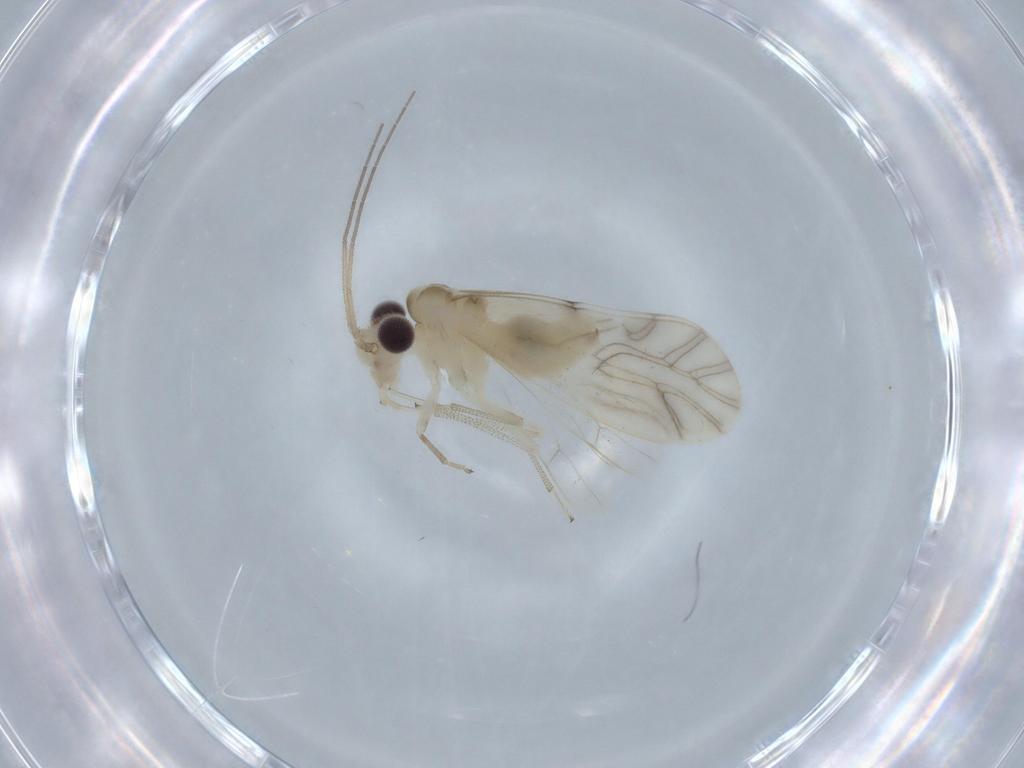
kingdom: Animalia
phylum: Arthropoda
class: Insecta
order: Psocodea
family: Caeciliusidae
